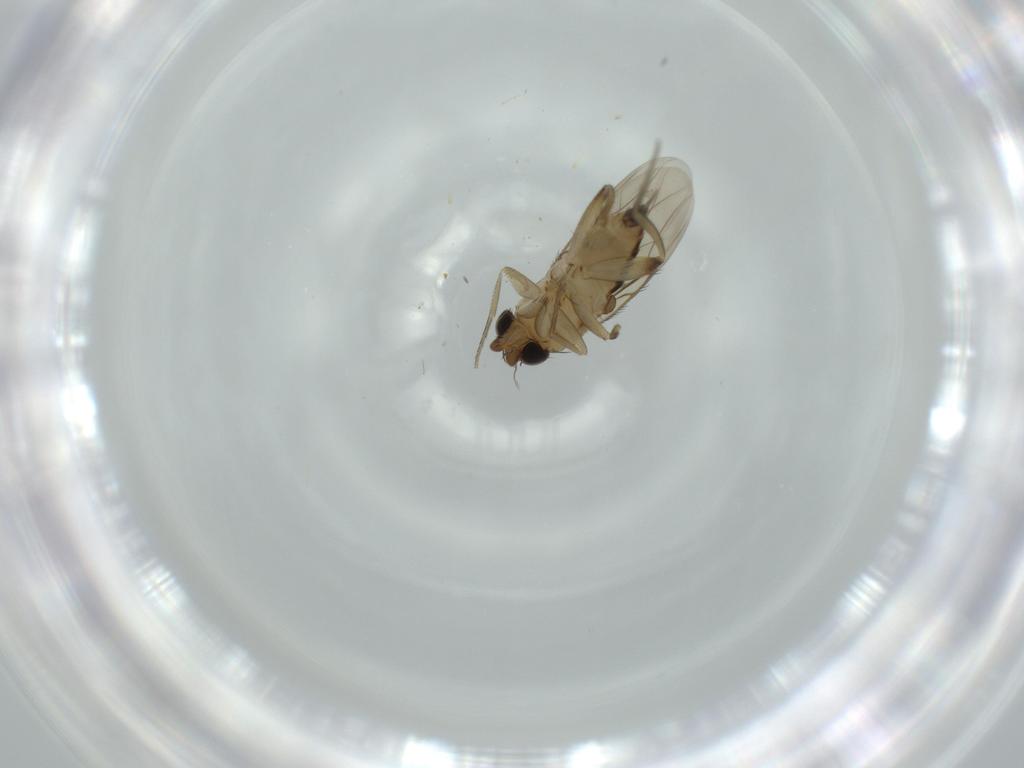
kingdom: Animalia
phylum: Arthropoda
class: Insecta
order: Diptera
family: Phoridae
